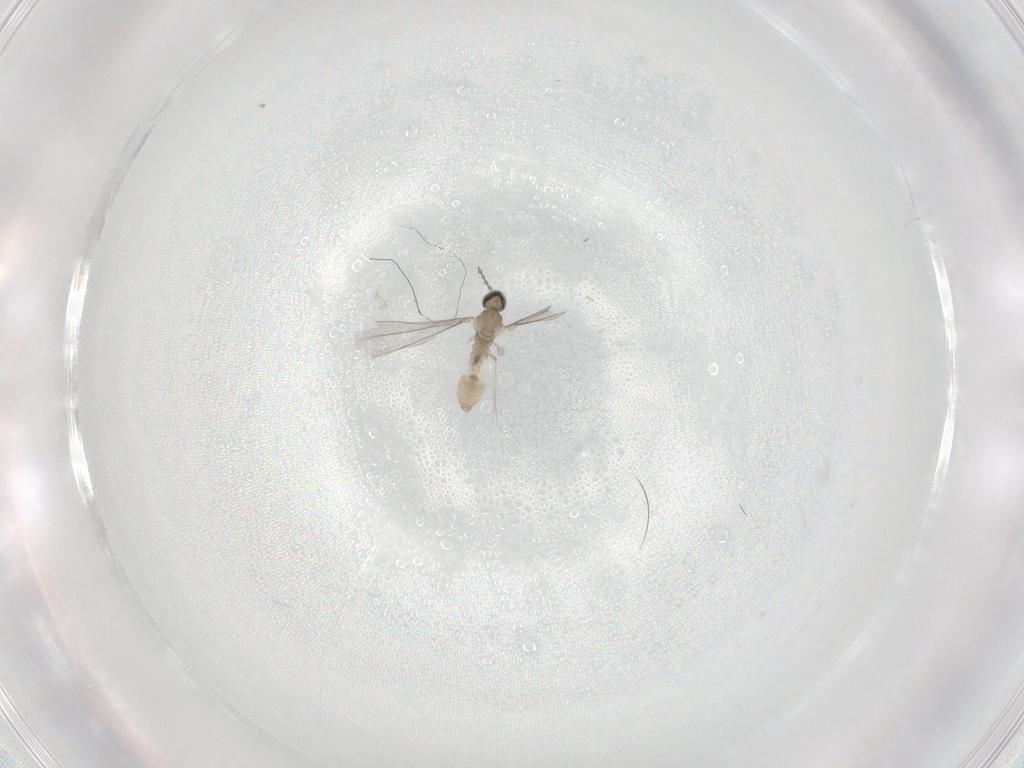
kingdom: Animalia
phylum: Arthropoda
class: Insecta
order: Diptera
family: Cecidomyiidae
